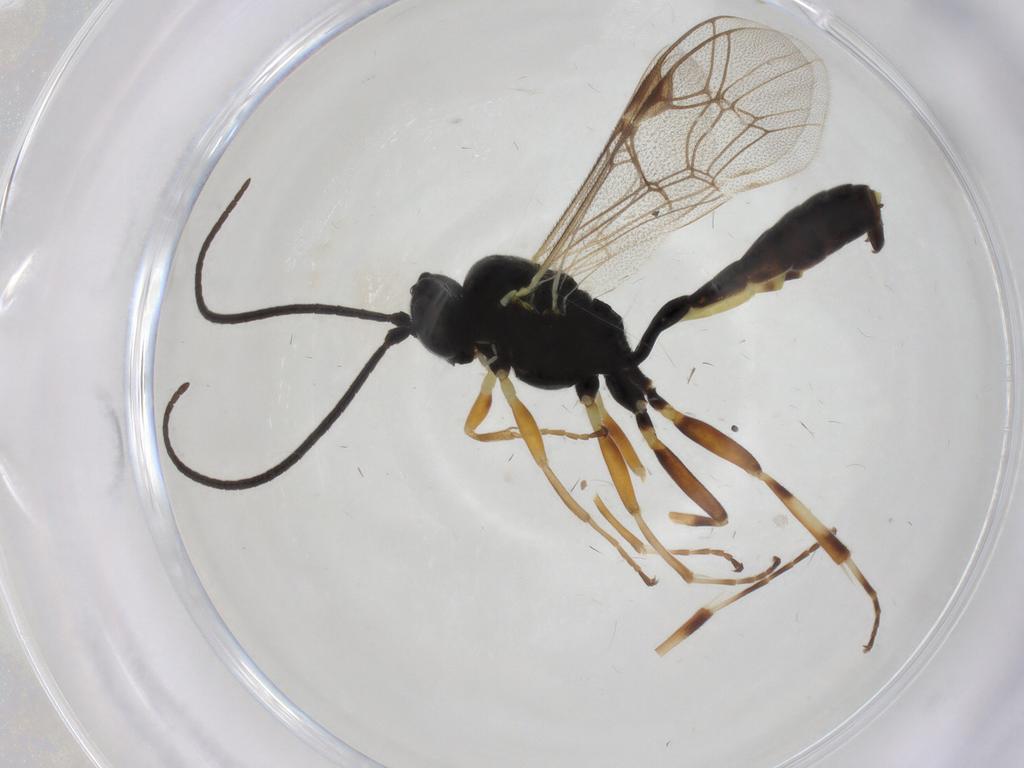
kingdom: Animalia
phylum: Arthropoda
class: Insecta
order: Hymenoptera
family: Ichneumonidae
